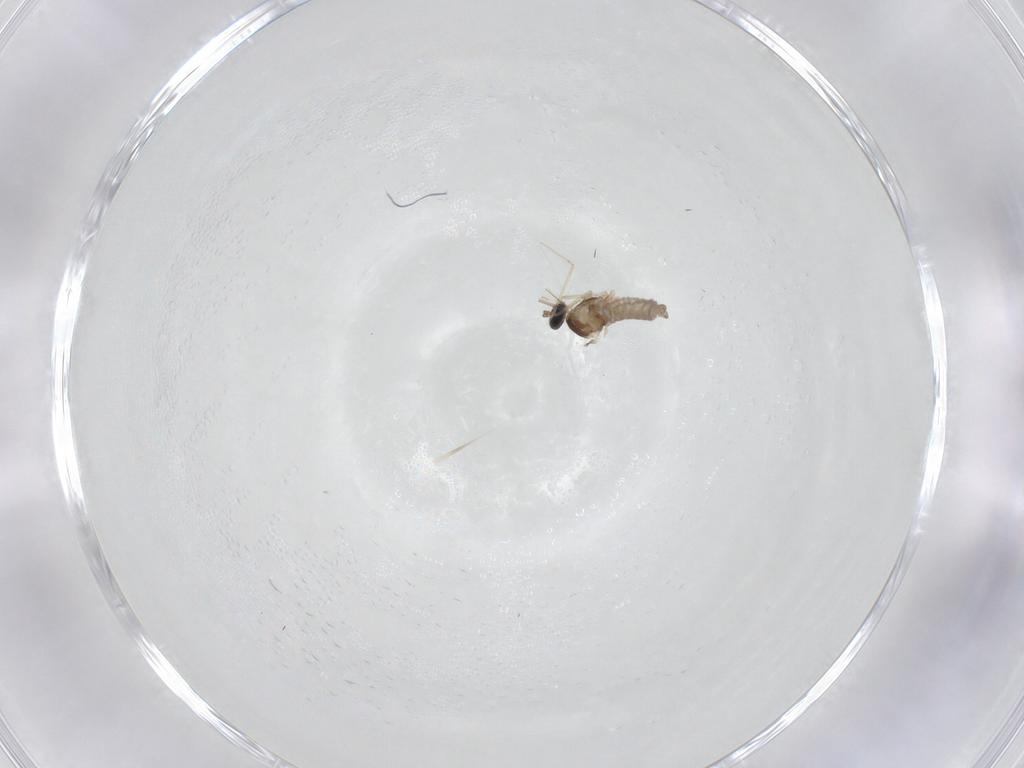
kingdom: Animalia
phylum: Arthropoda
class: Insecta
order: Diptera
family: Cecidomyiidae
